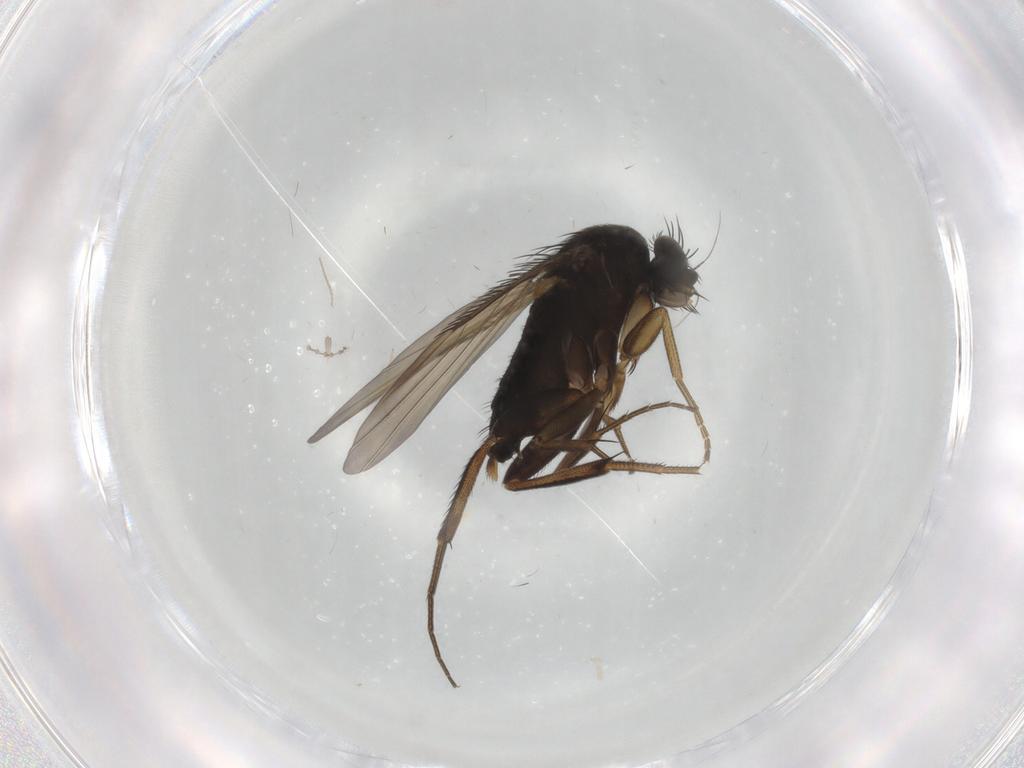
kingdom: Animalia
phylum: Arthropoda
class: Insecta
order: Diptera
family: Phoridae
